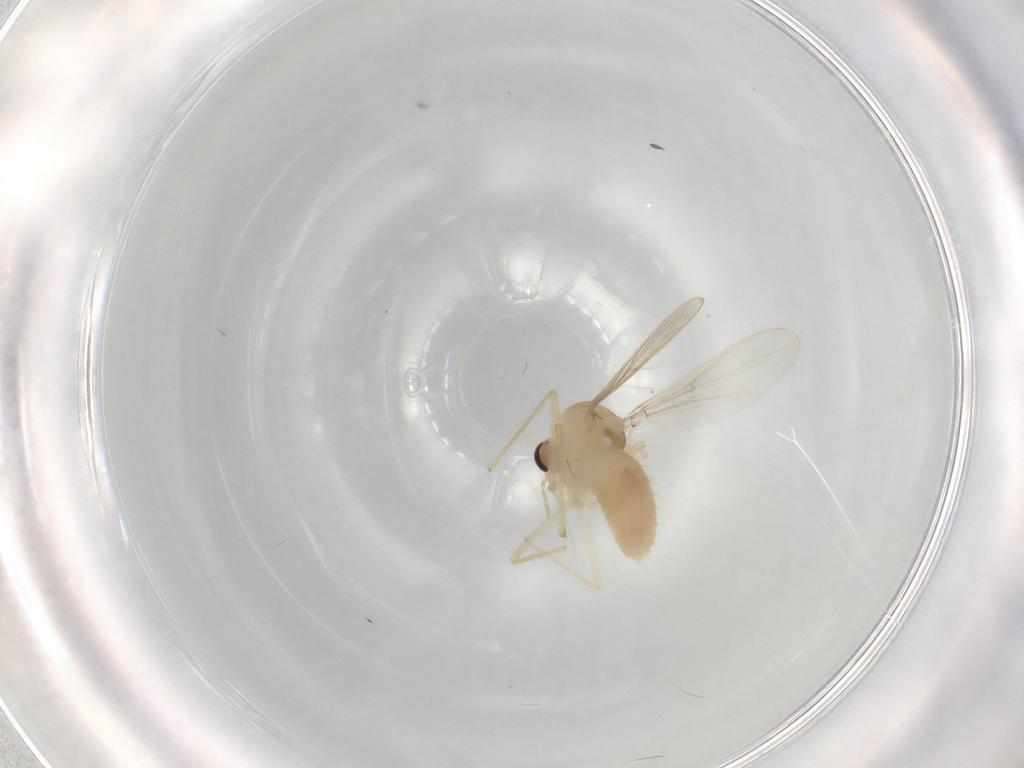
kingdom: Animalia
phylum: Arthropoda
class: Insecta
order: Diptera
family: Chironomidae
